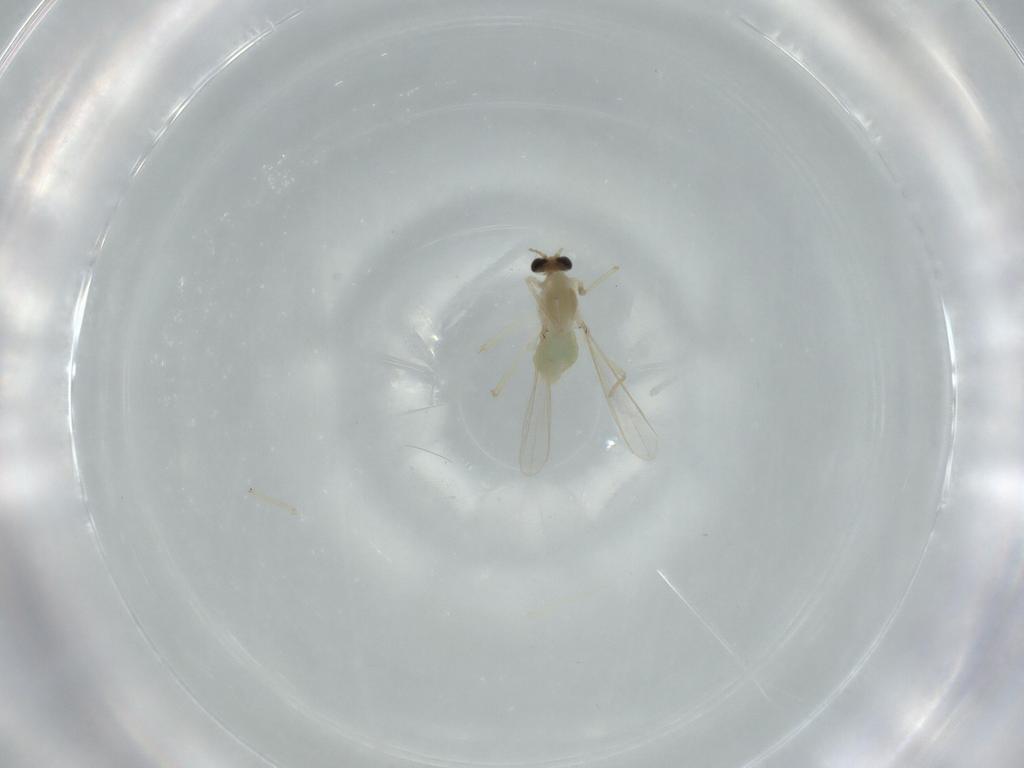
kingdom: Animalia
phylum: Arthropoda
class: Insecta
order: Diptera
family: Chironomidae
